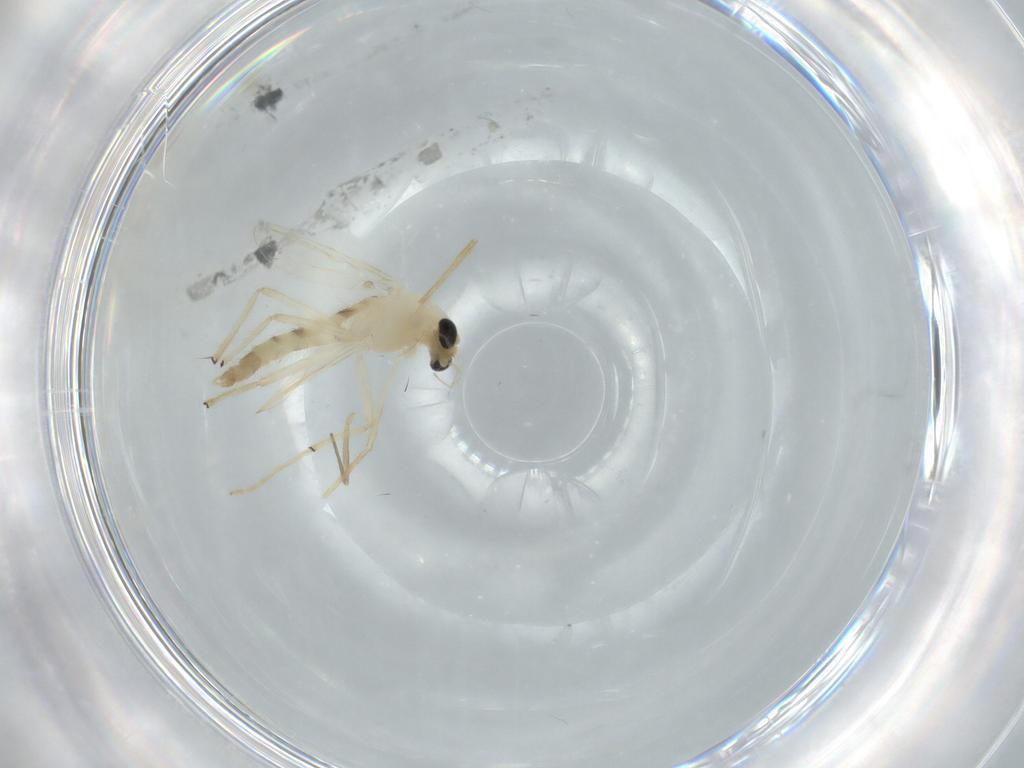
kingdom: Animalia
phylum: Arthropoda
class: Insecta
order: Diptera
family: Dolichopodidae
